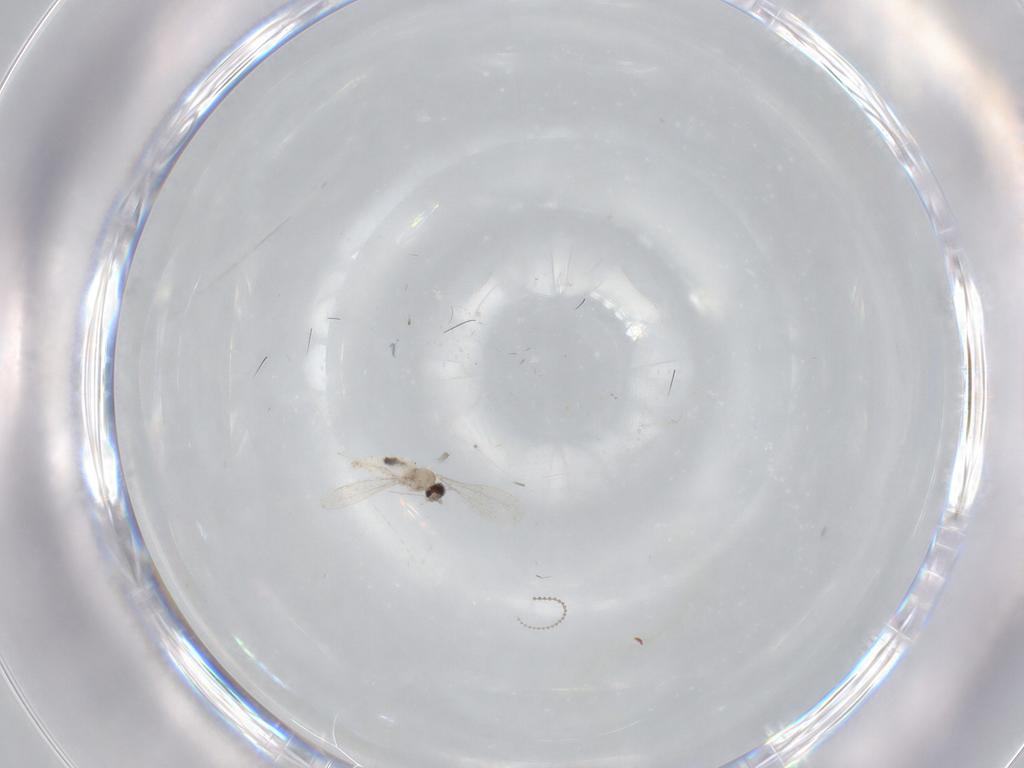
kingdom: Animalia
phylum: Arthropoda
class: Insecta
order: Diptera
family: Cecidomyiidae
